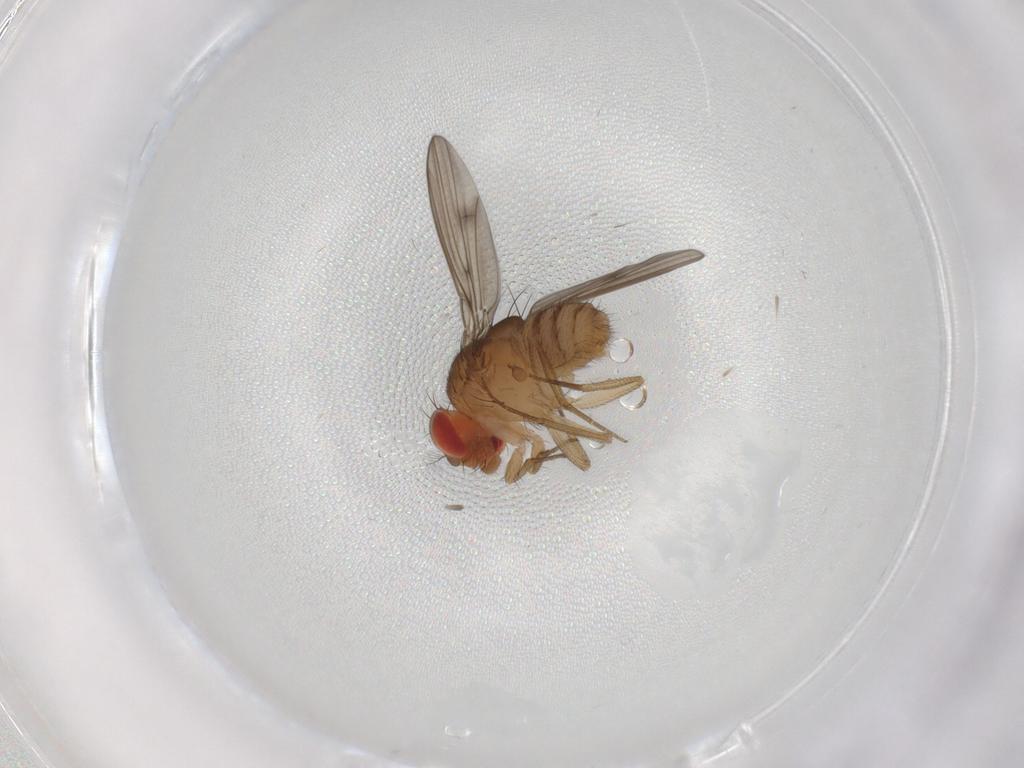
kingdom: Animalia
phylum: Arthropoda
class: Insecta
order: Diptera
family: Drosophilidae
